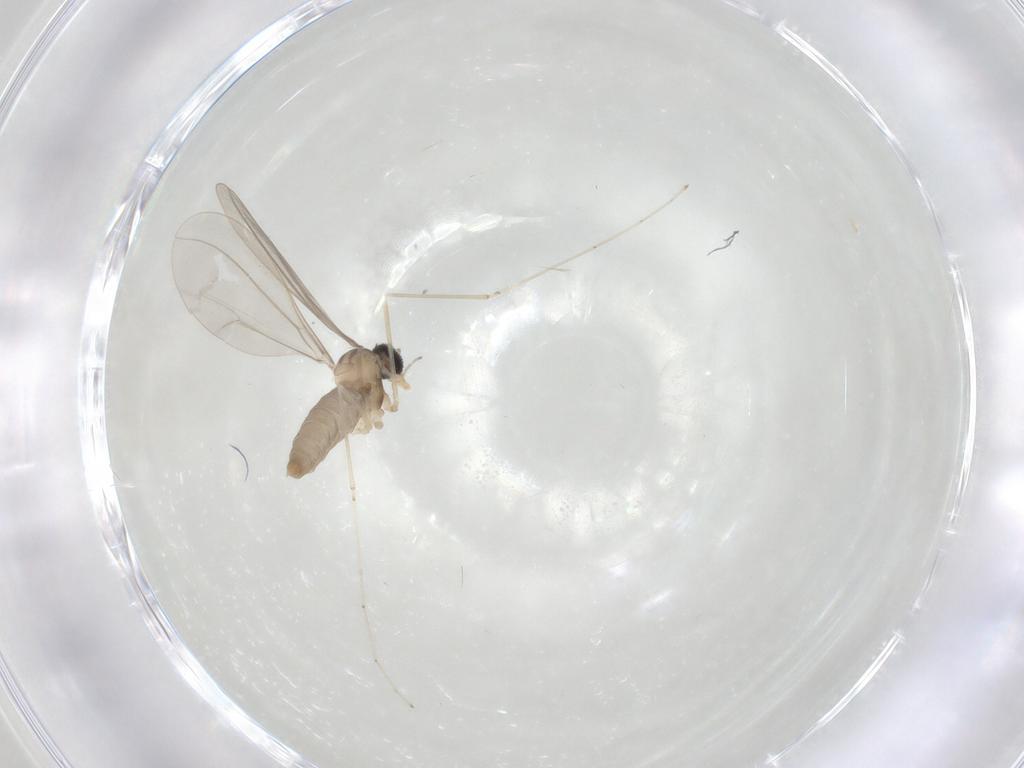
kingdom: Animalia
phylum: Arthropoda
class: Insecta
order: Diptera
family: Cecidomyiidae
